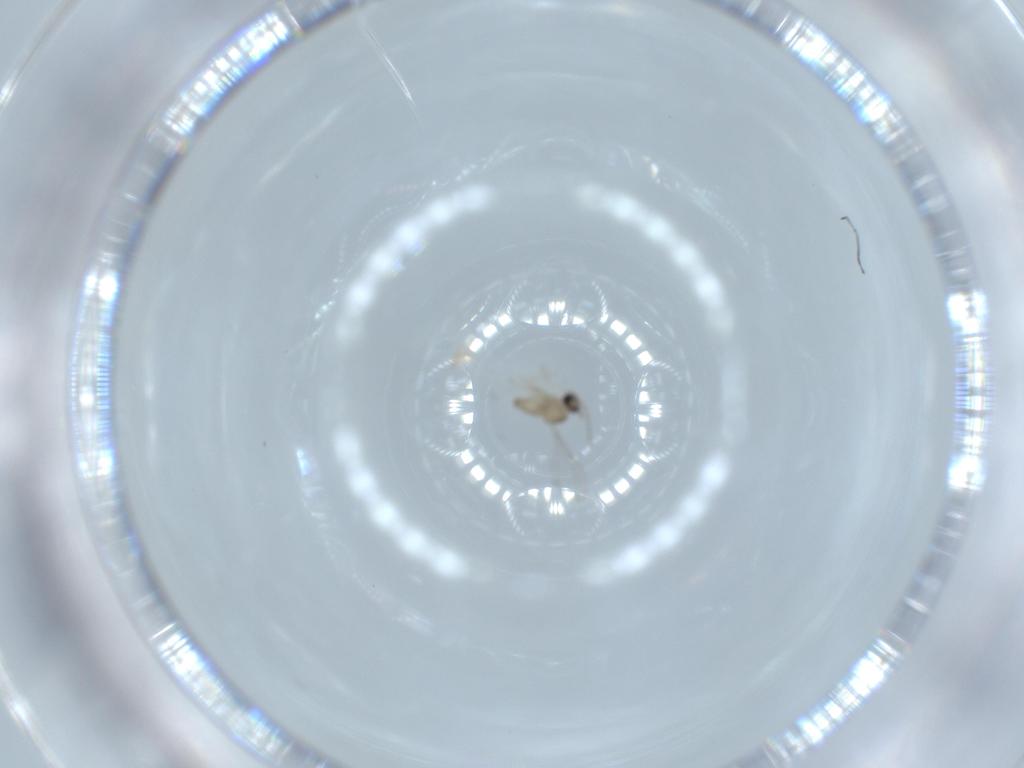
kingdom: Animalia
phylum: Arthropoda
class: Insecta
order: Diptera
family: Cecidomyiidae
